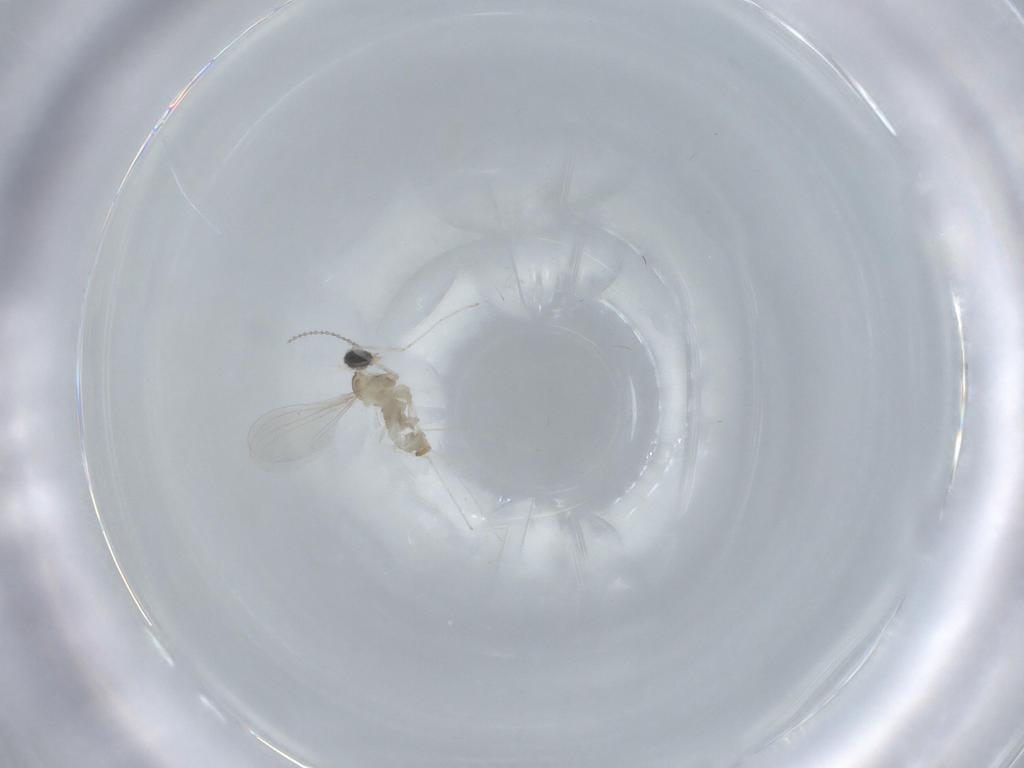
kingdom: Animalia
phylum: Arthropoda
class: Insecta
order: Diptera
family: Cecidomyiidae
